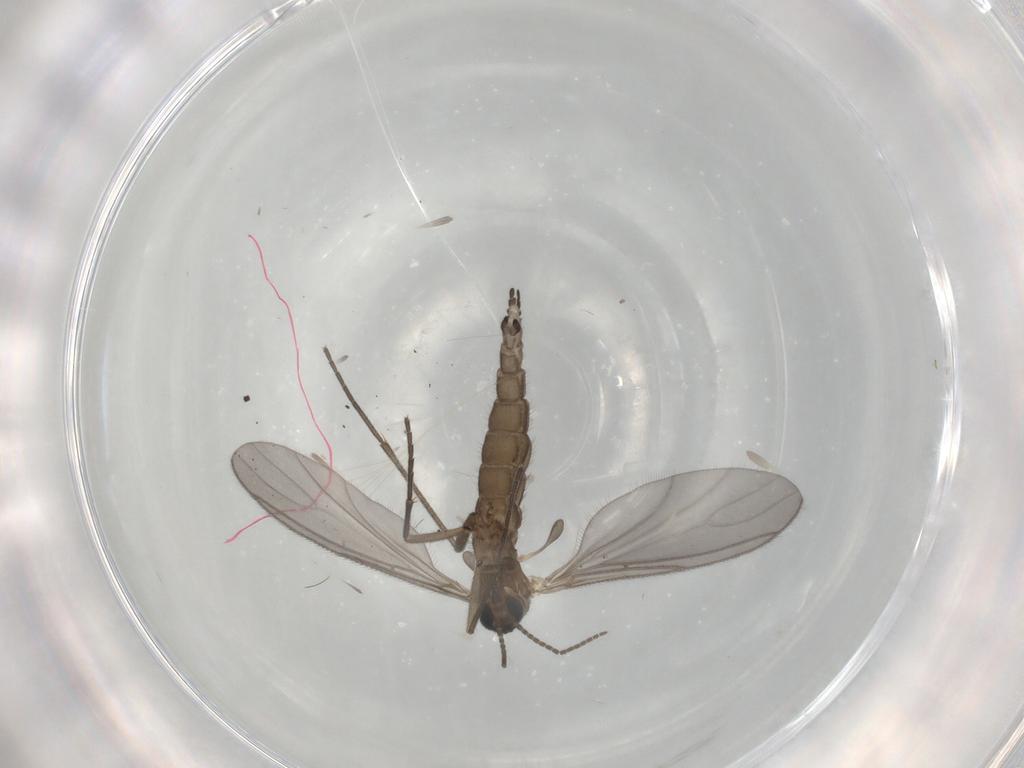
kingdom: Animalia
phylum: Arthropoda
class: Insecta
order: Diptera
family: Sciaridae
